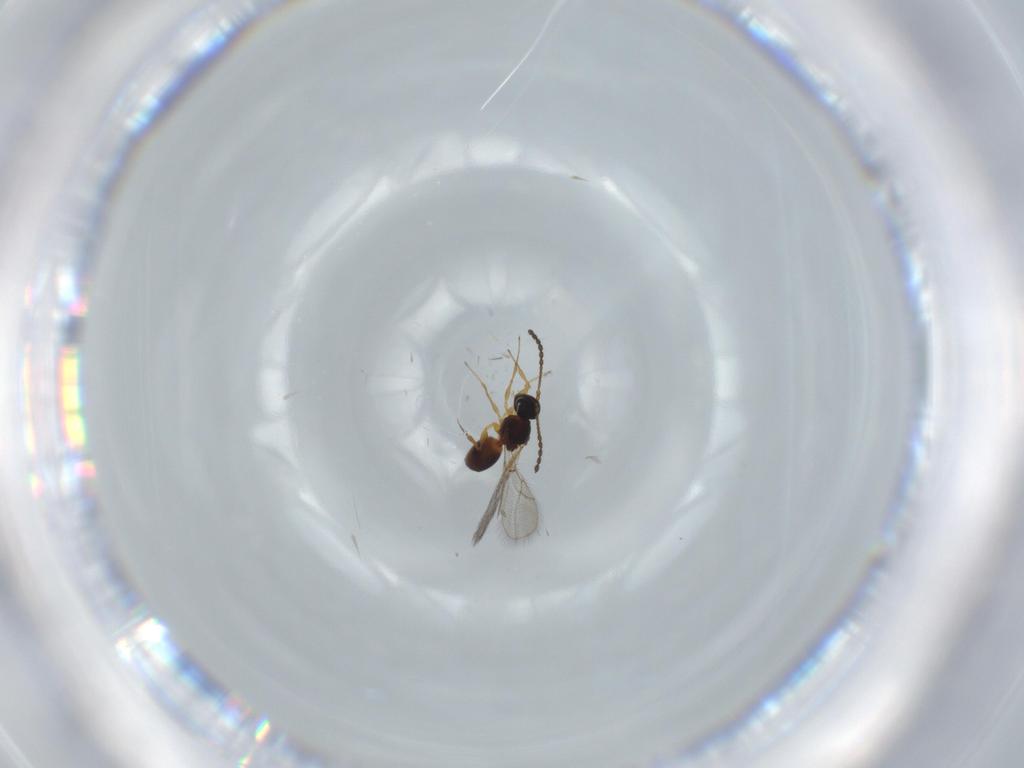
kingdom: Animalia
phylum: Arthropoda
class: Insecta
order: Hymenoptera
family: Figitidae
